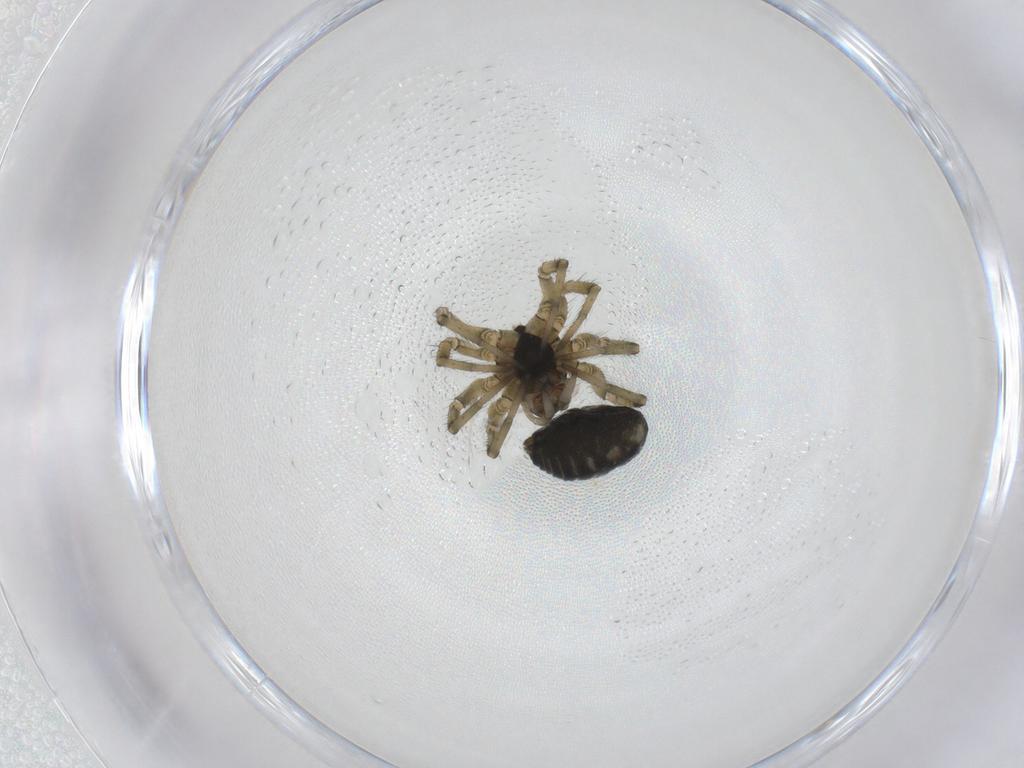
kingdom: Animalia
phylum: Arthropoda
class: Arachnida
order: Araneae
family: Linyphiidae
